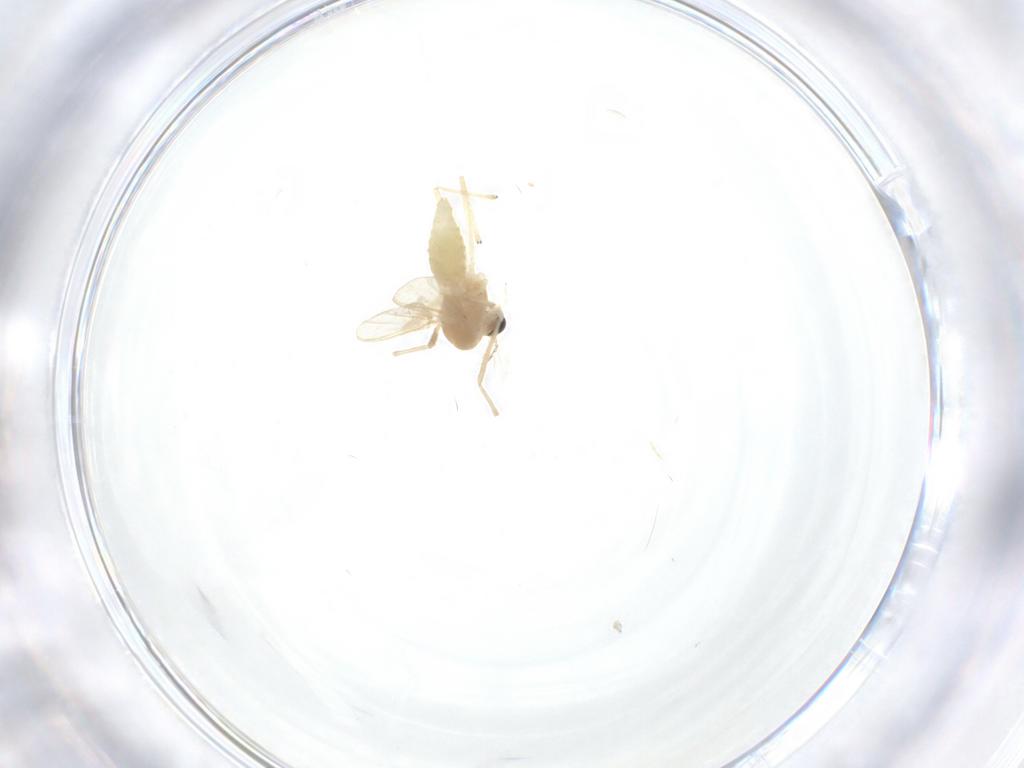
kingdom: Animalia
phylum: Arthropoda
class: Insecta
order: Diptera
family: Chironomidae
